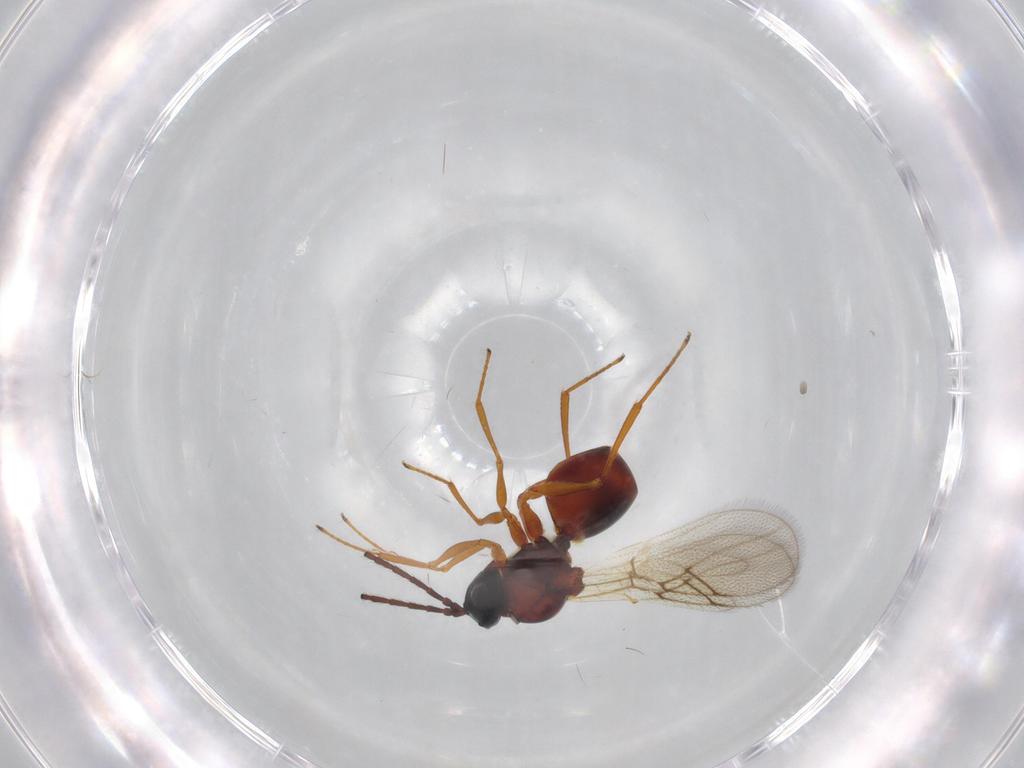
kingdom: Animalia
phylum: Arthropoda
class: Insecta
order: Hymenoptera
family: Figitidae
